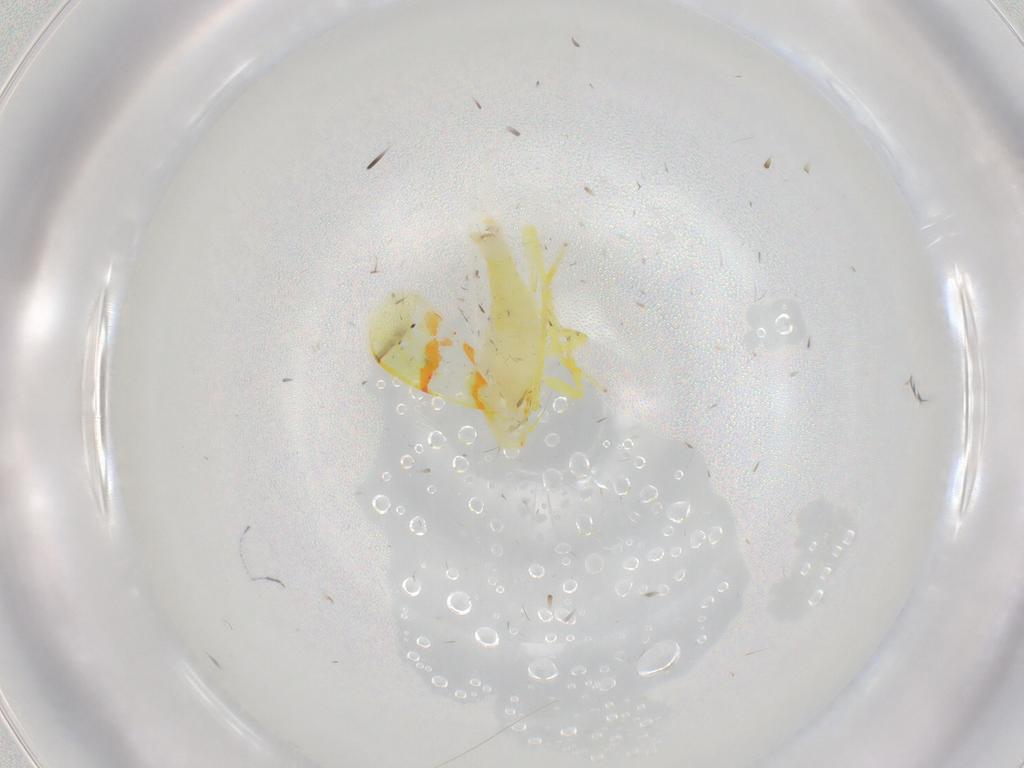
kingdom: Animalia
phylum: Arthropoda
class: Insecta
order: Hemiptera
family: Cicadellidae
